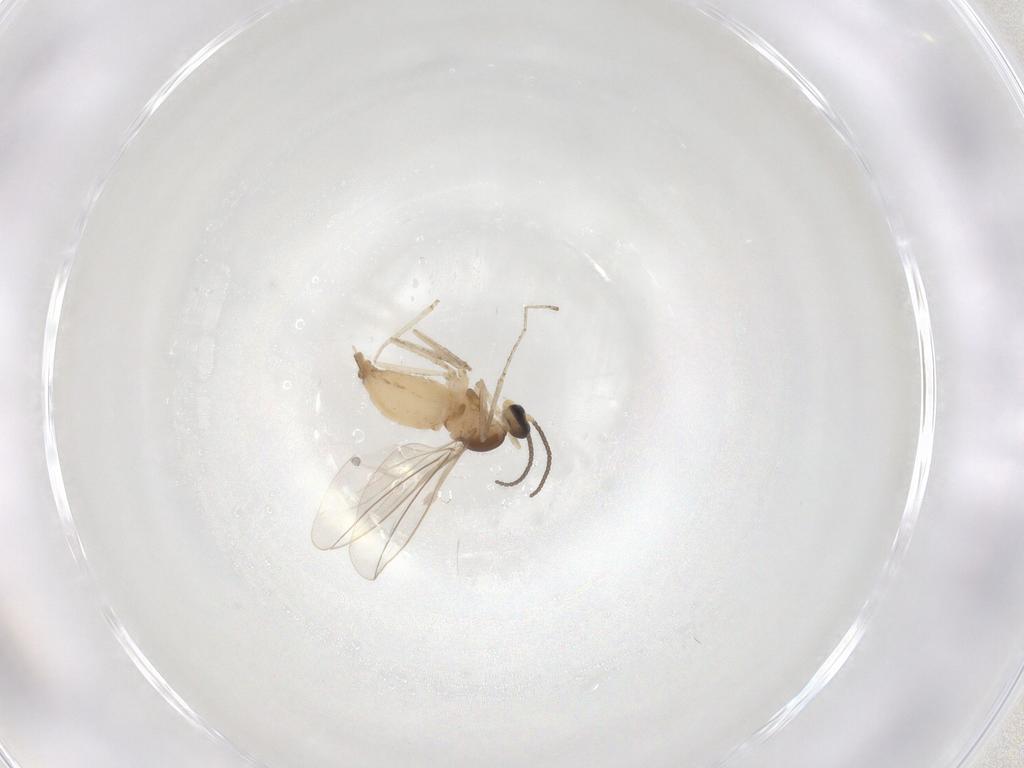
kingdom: Animalia
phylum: Arthropoda
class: Insecta
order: Diptera
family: Cecidomyiidae
